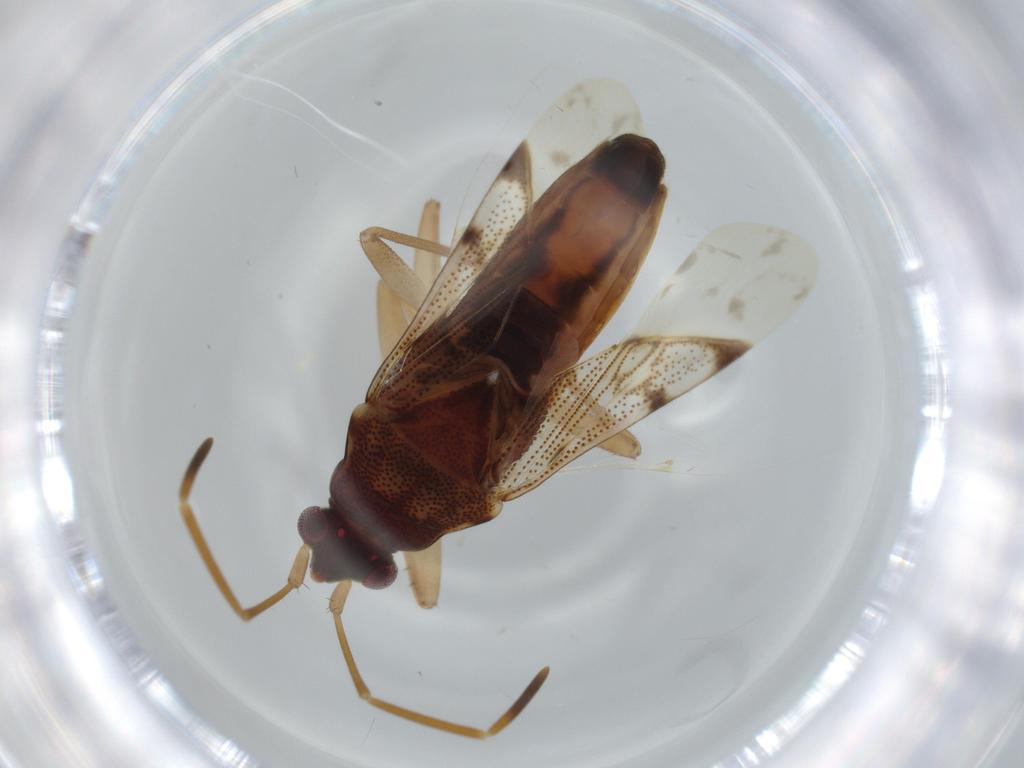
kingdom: Animalia
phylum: Arthropoda
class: Insecta
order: Hemiptera
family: Rhyparochromidae
